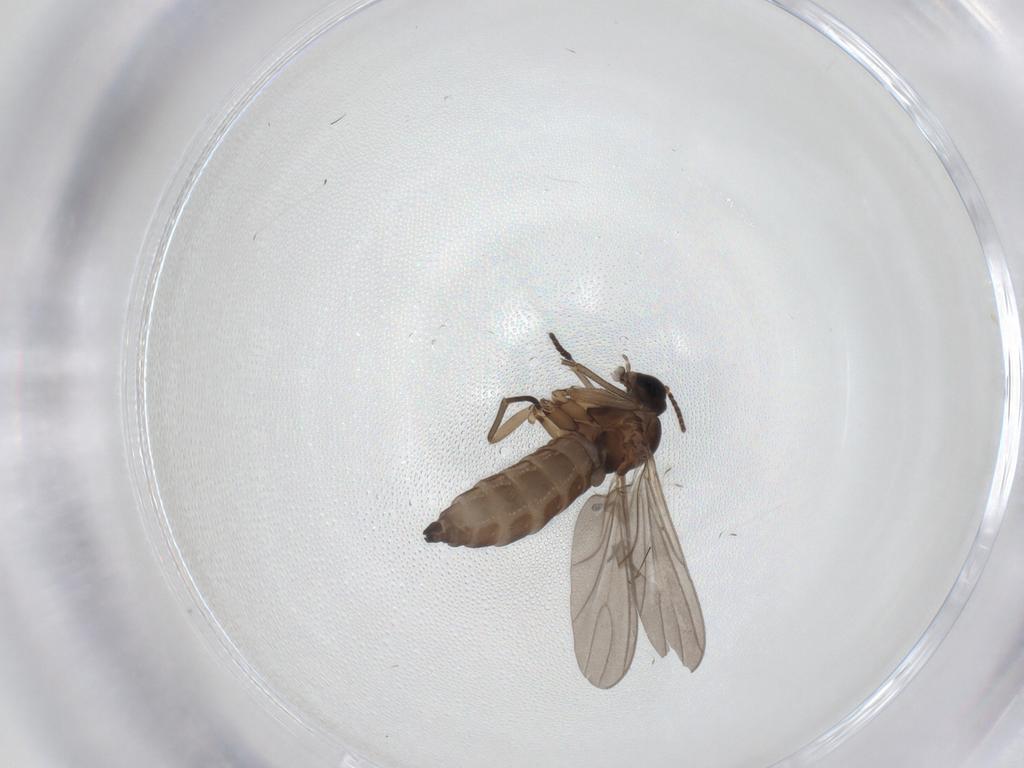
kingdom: Animalia
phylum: Arthropoda
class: Insecta
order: Diptera
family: Sciaridae
